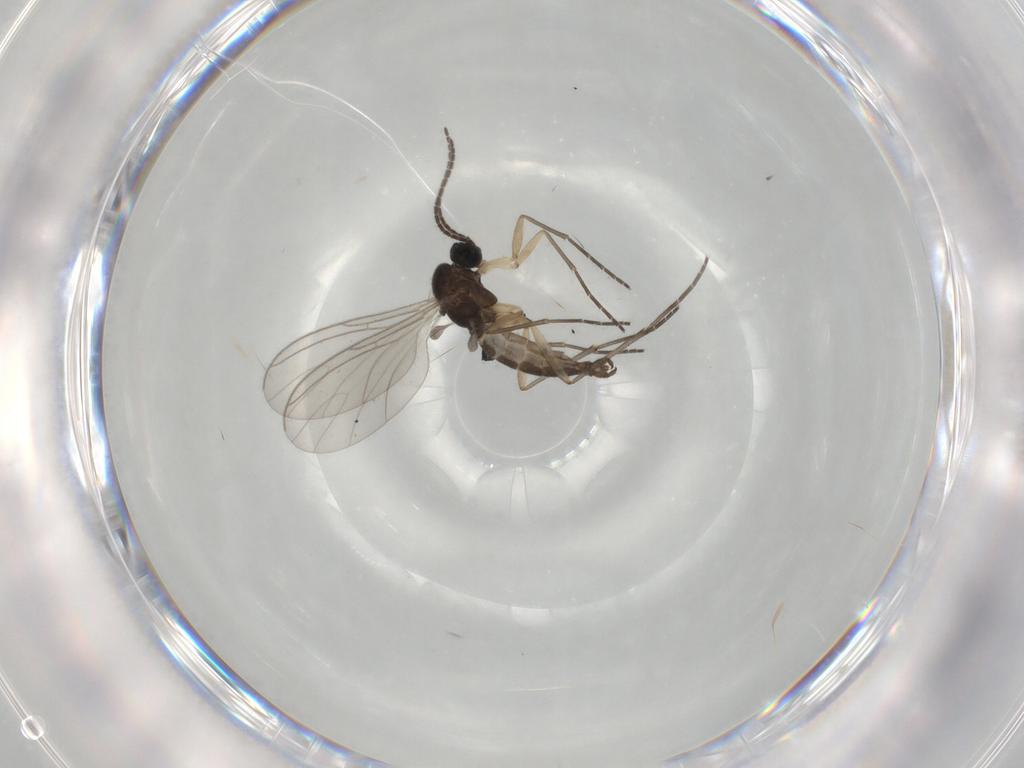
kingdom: Animalia
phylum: Arthropoda
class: Insecta
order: Diptera
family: Sciaridae
